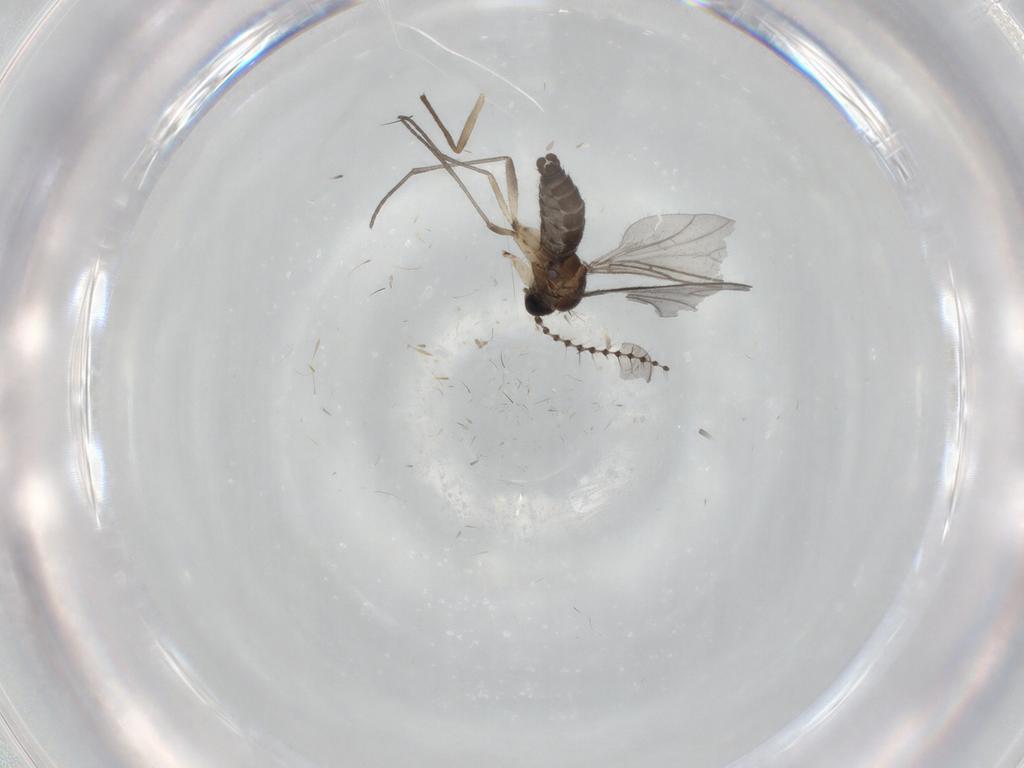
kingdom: Animalia
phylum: Arthropoda
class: Insecta
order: Diptera
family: Sciaridae
